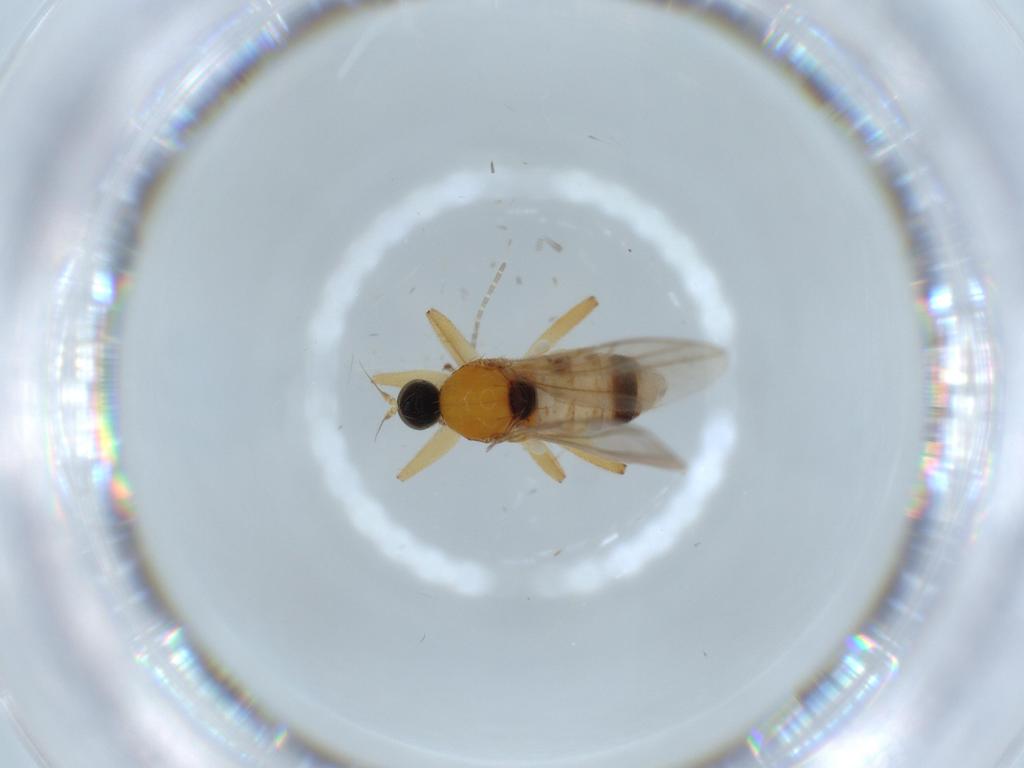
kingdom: Animalia
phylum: Arthropoda
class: Insecta
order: Diptera
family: Hybotidae
